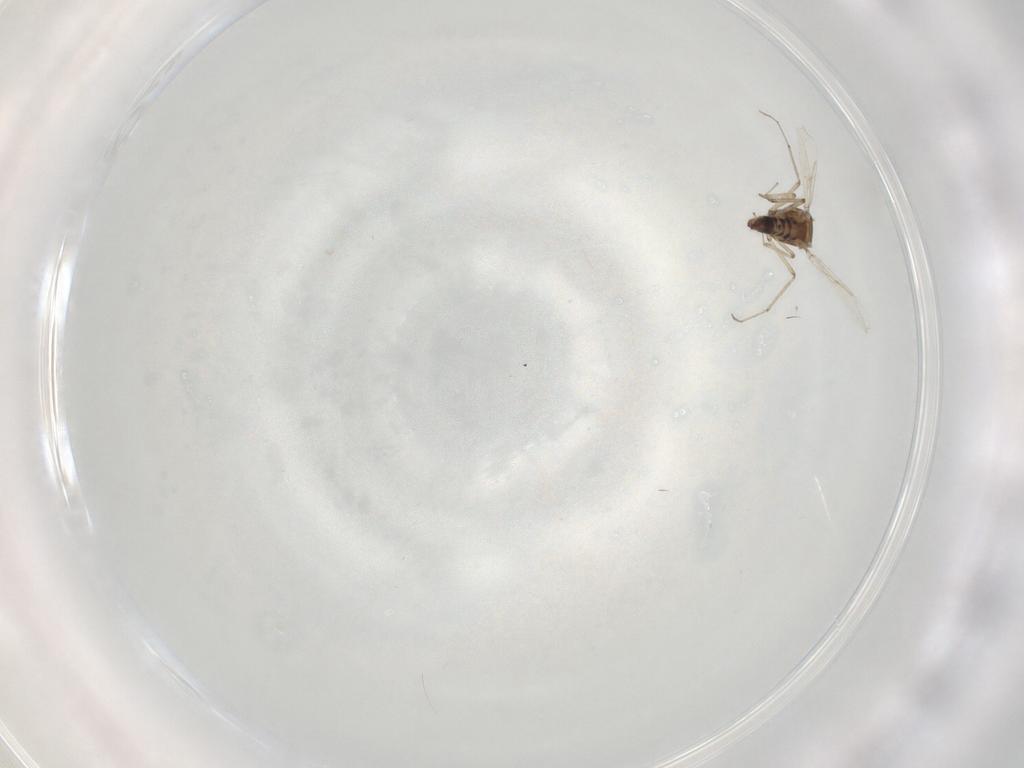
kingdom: Animalia
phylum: Arthropoda
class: Insecta
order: Diptera
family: Ceratopogonidae
